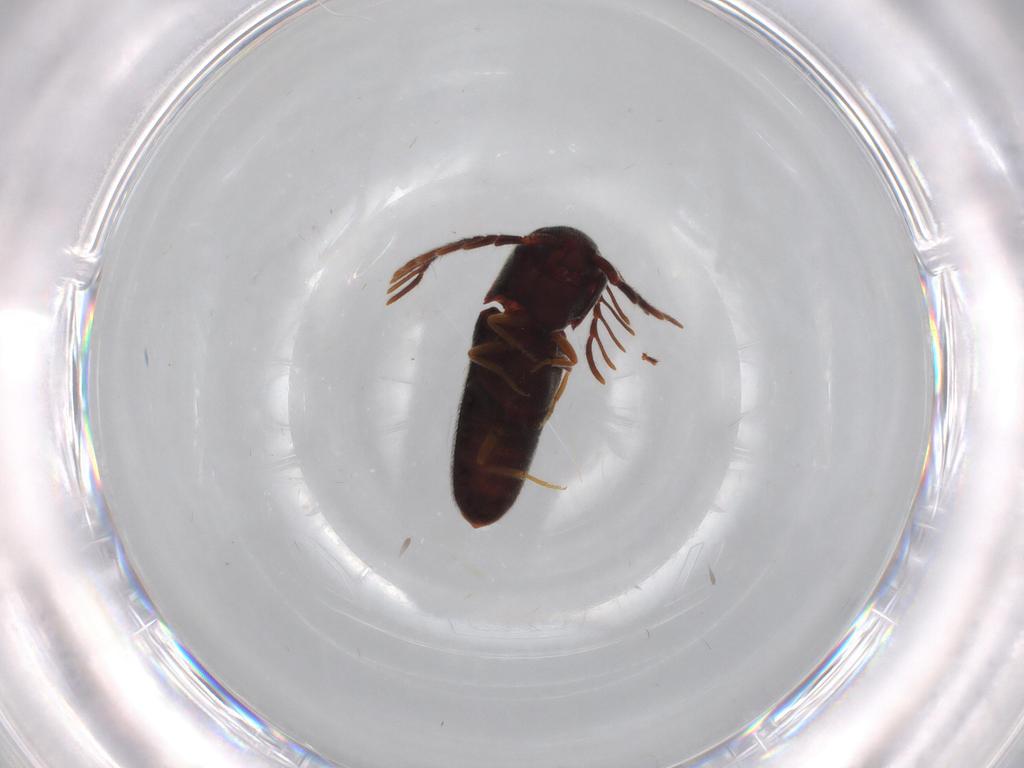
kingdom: Animalia
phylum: Arthropoda
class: Insecta
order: Coleoptera
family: Eucnemidae
